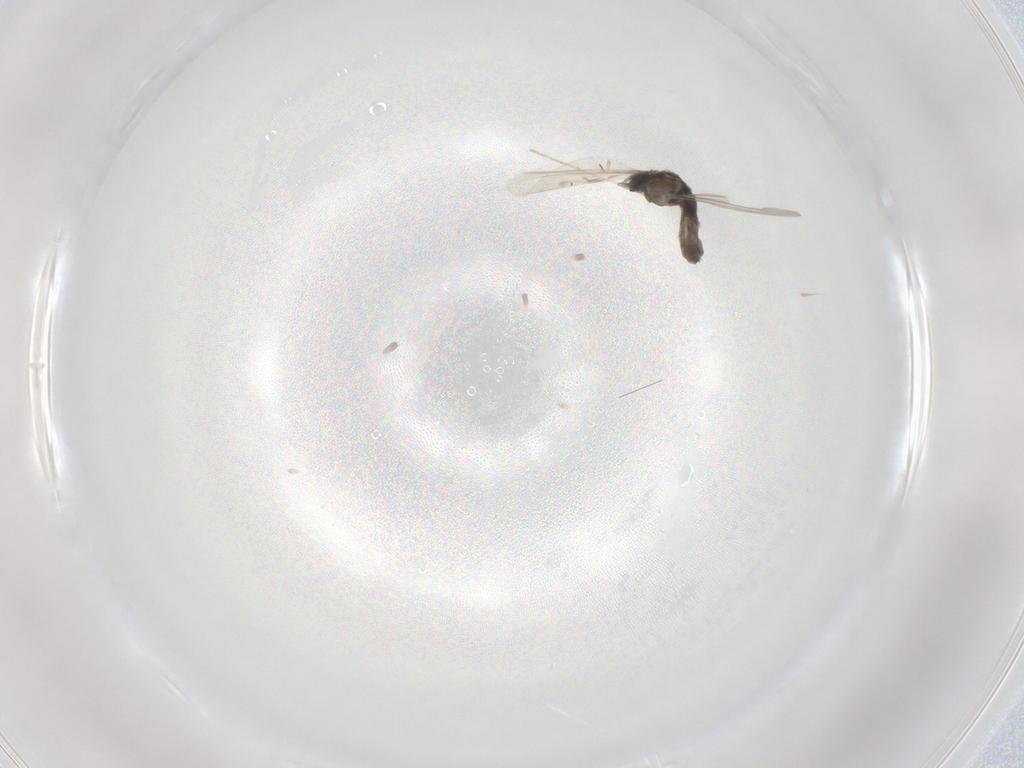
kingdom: Animalia
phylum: Arthropoda
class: Insecta
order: Diptera
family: Cecidomyiidae
